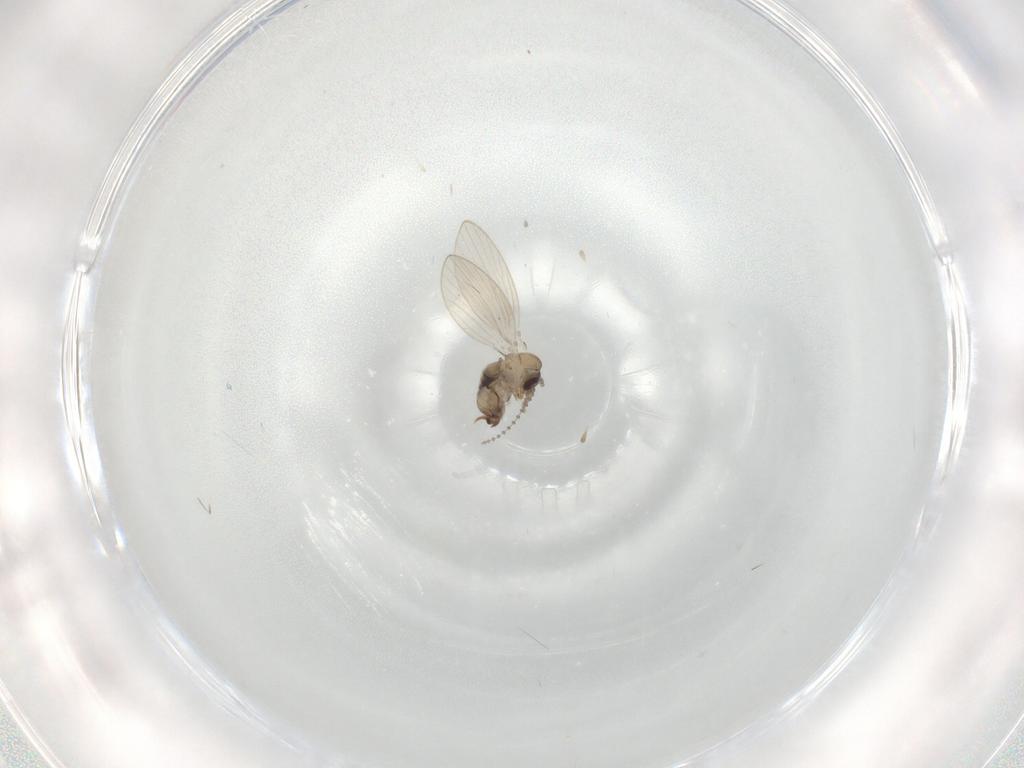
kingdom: Animalia
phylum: Arthropoda
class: Insecta
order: Diptera
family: Psychodidae
